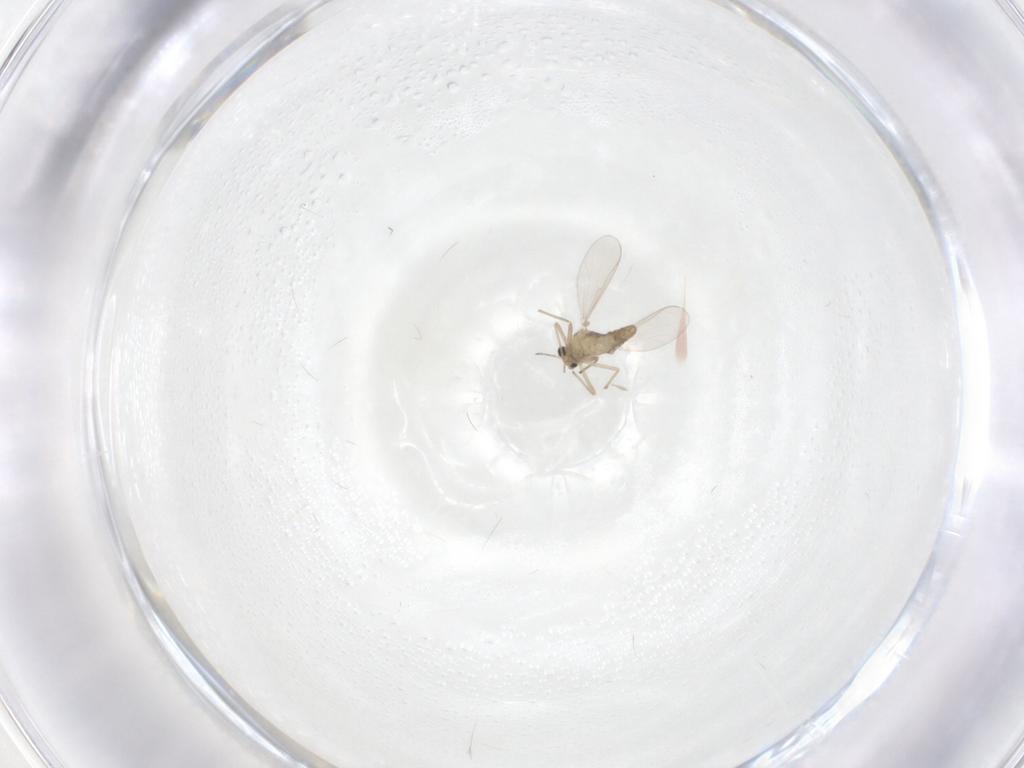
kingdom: Animalia
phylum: Arthropoda
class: Insecta
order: Diptera
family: Chironomidae
